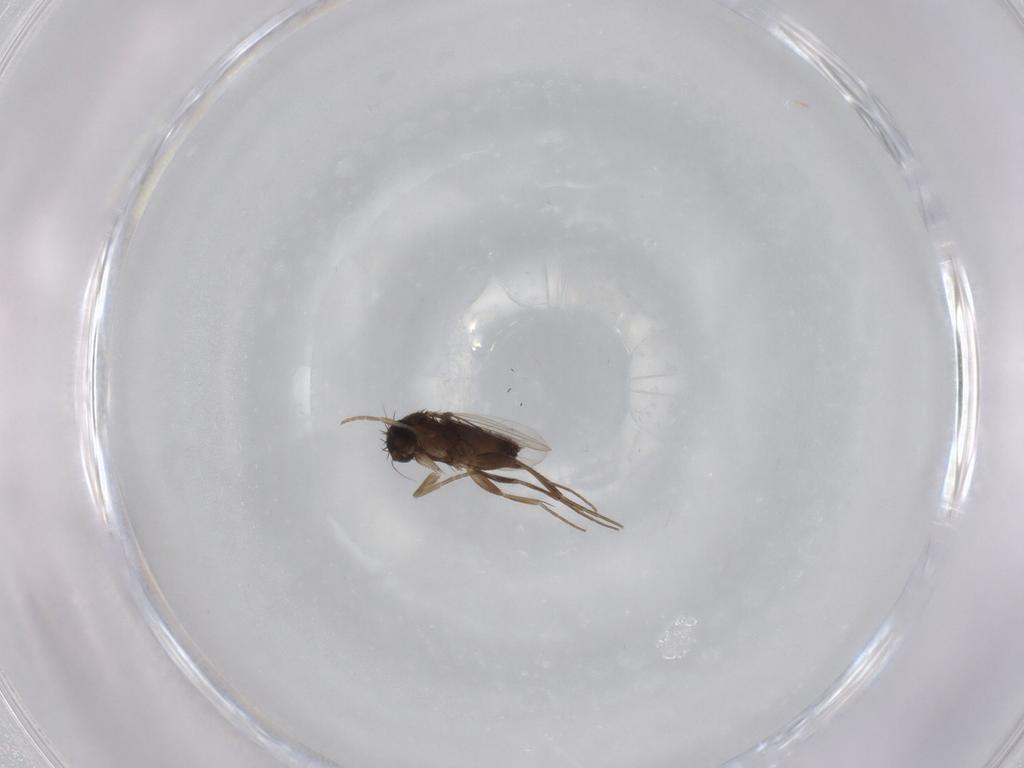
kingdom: Animalia
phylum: Arthropoda
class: Insecta
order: Diptera
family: Phoridae
